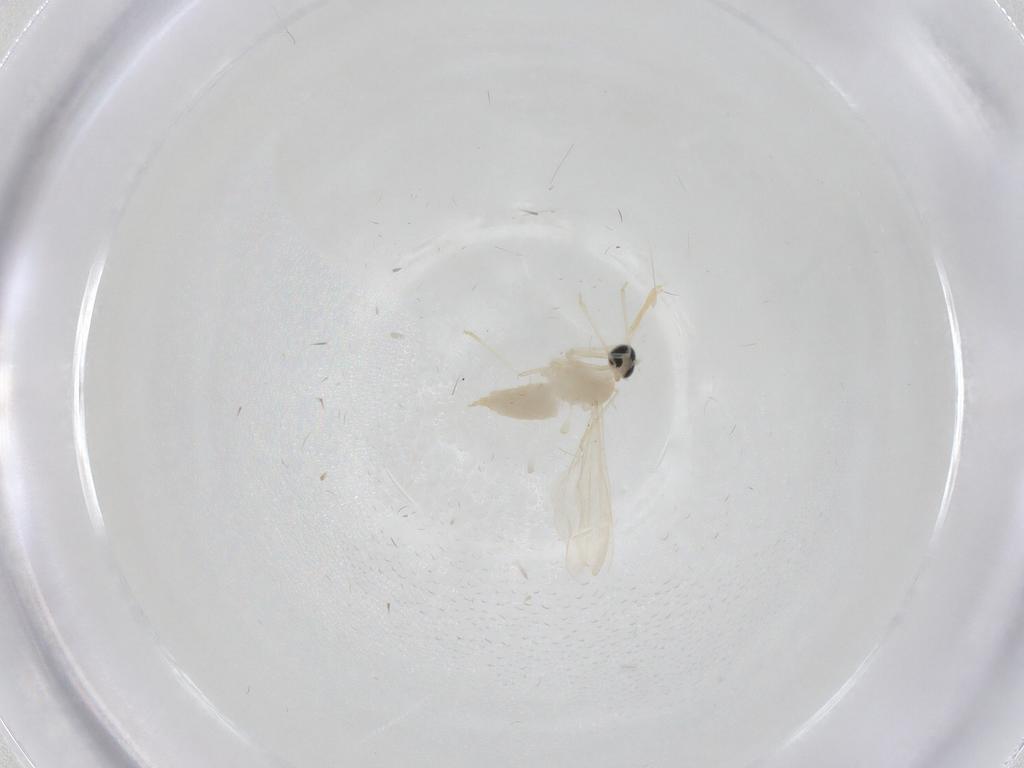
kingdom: Animalia
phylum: Arthropoda
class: Insecta
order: Diptera
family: Cecidomyiidae
